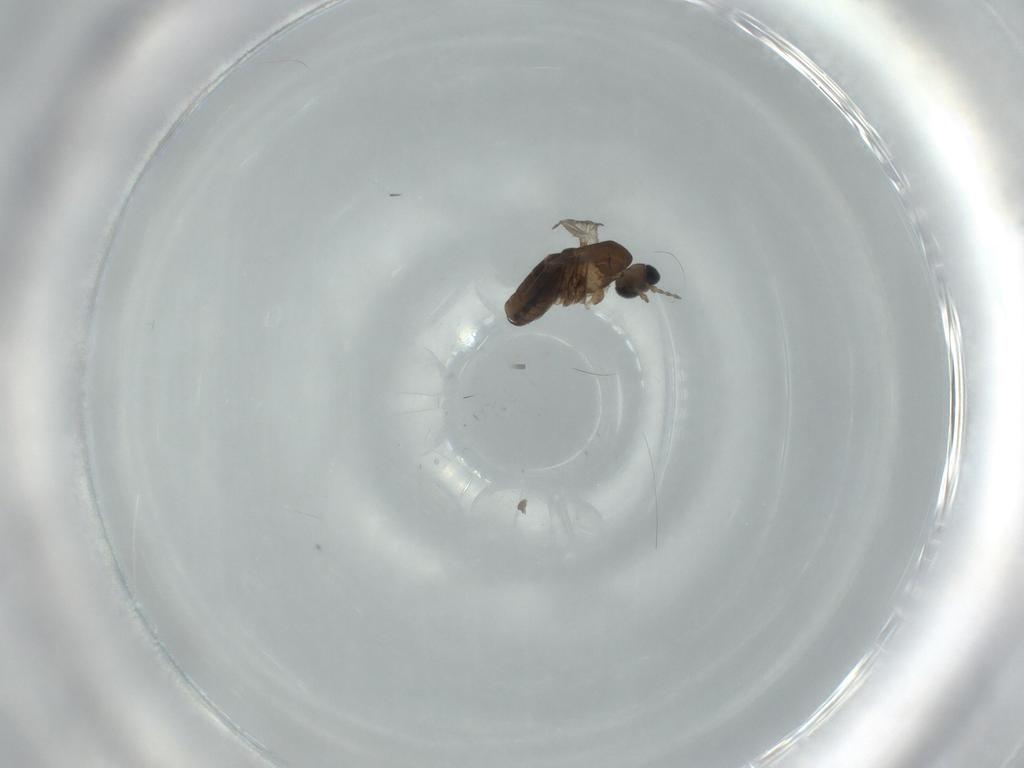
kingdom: Animalia
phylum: Arthropoda
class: Insecta
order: Diptera
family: Psychodidae
